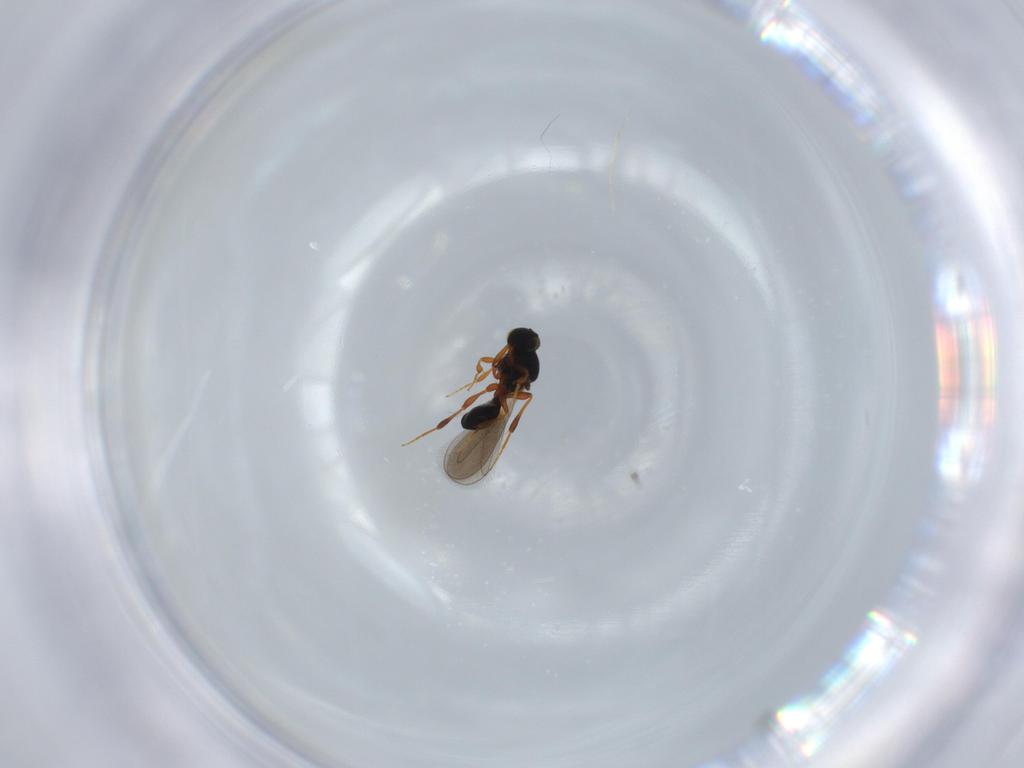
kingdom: Animalia
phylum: Arthropoda
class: Insecta
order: Hymenoptera
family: Platygastridae
